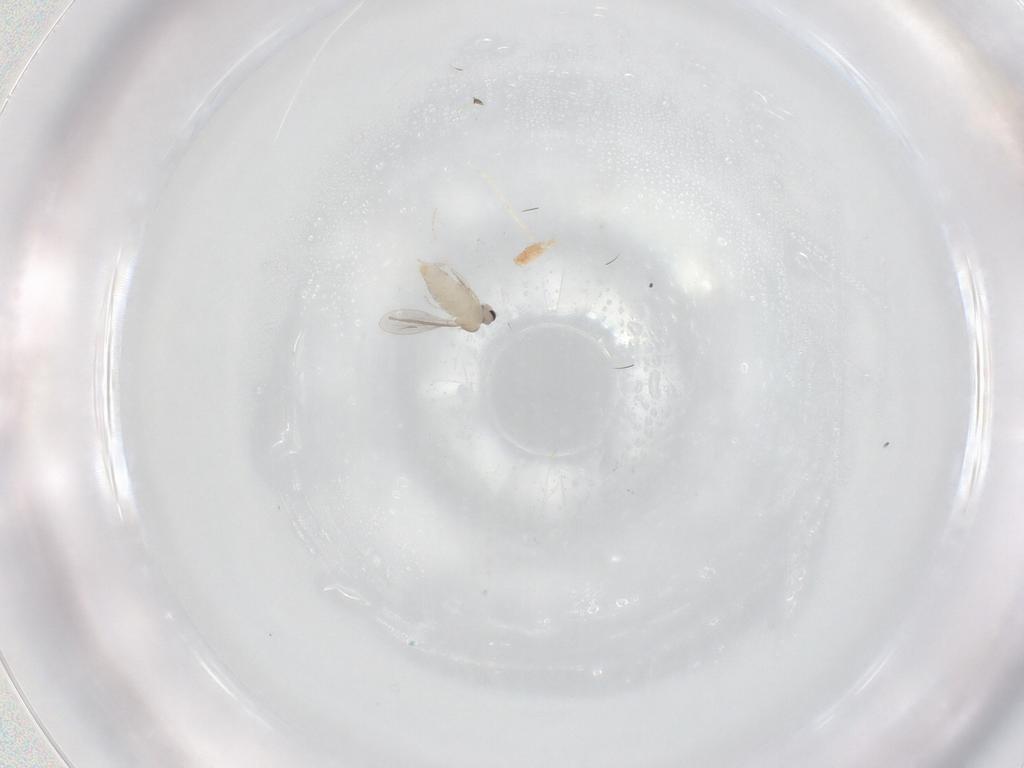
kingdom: Animalia
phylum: Arthropoda
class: Insecta
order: Diptera
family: Cecidomyiidae
